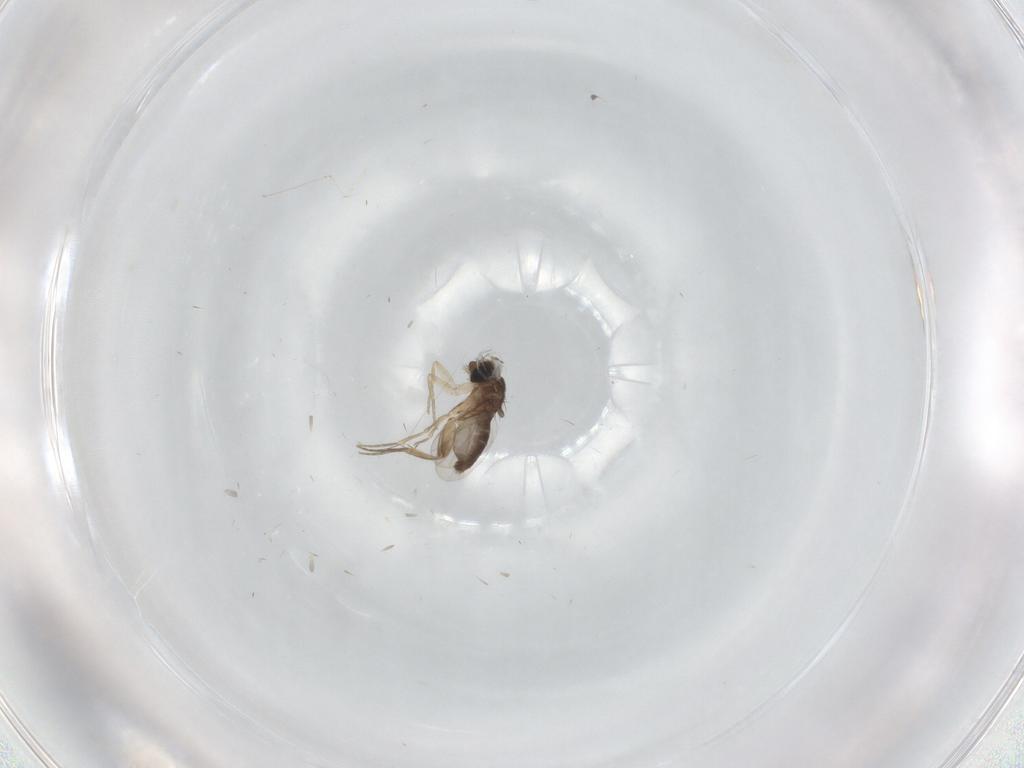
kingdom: Animalia
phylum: Arthropoda
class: Insecta
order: Diptera
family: Cecidomyiidae
